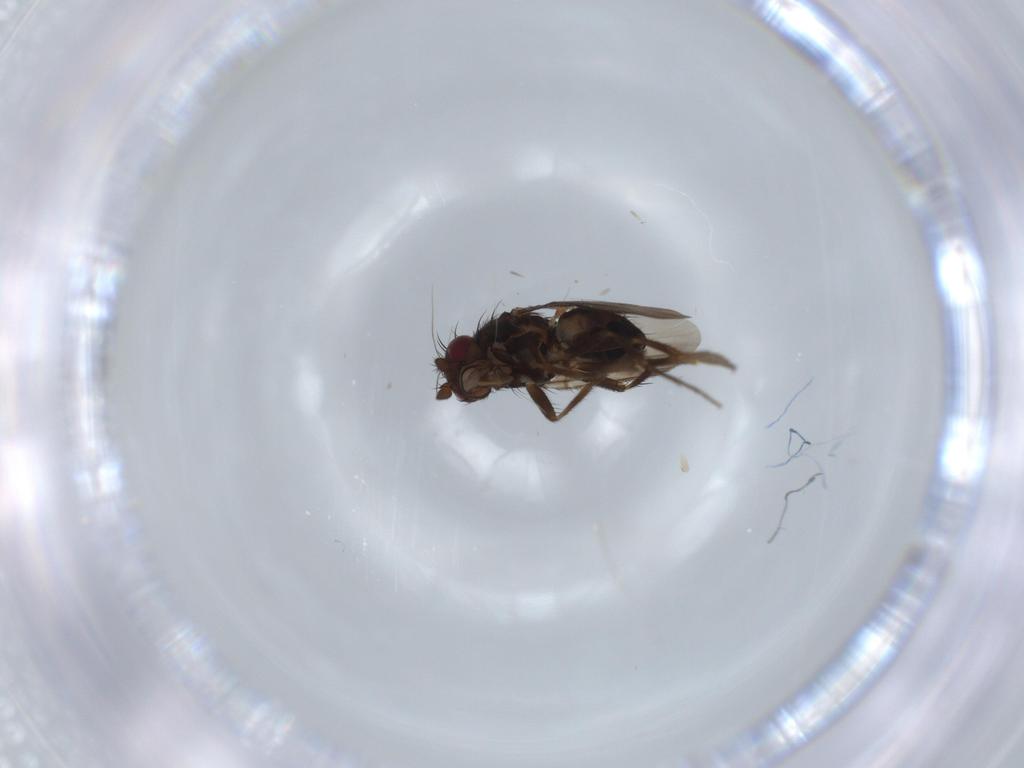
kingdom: Animalia
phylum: Arthropoda
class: Insecta
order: Diptera
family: Sphaeroceridae
